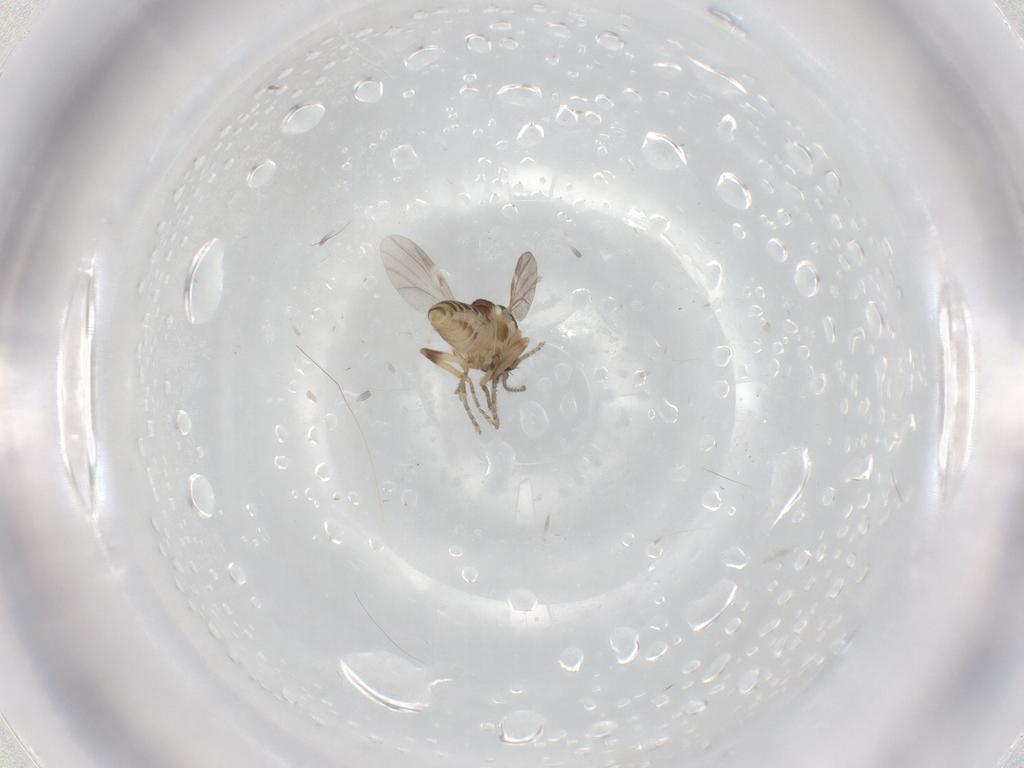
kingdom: Animalia
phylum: Arthropoda
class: Insecta
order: Diptera
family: Ceratopogonidae
